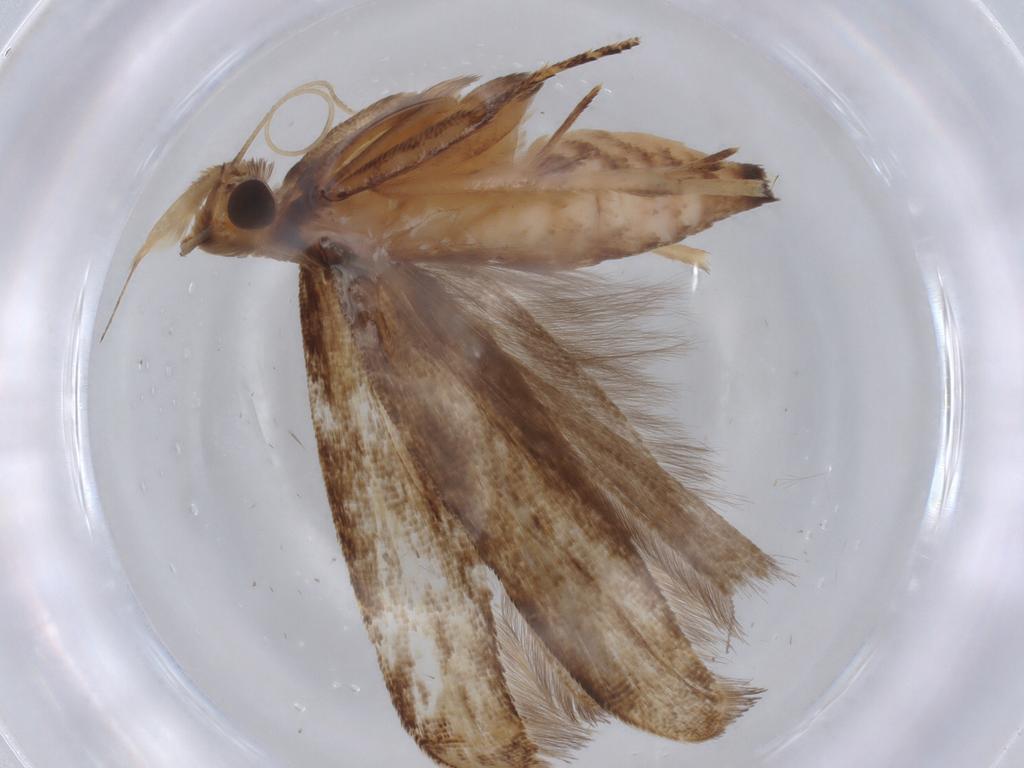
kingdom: Animalia
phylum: Arthropoda
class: Insecta
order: Lepidoptera
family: Gelechiidae
